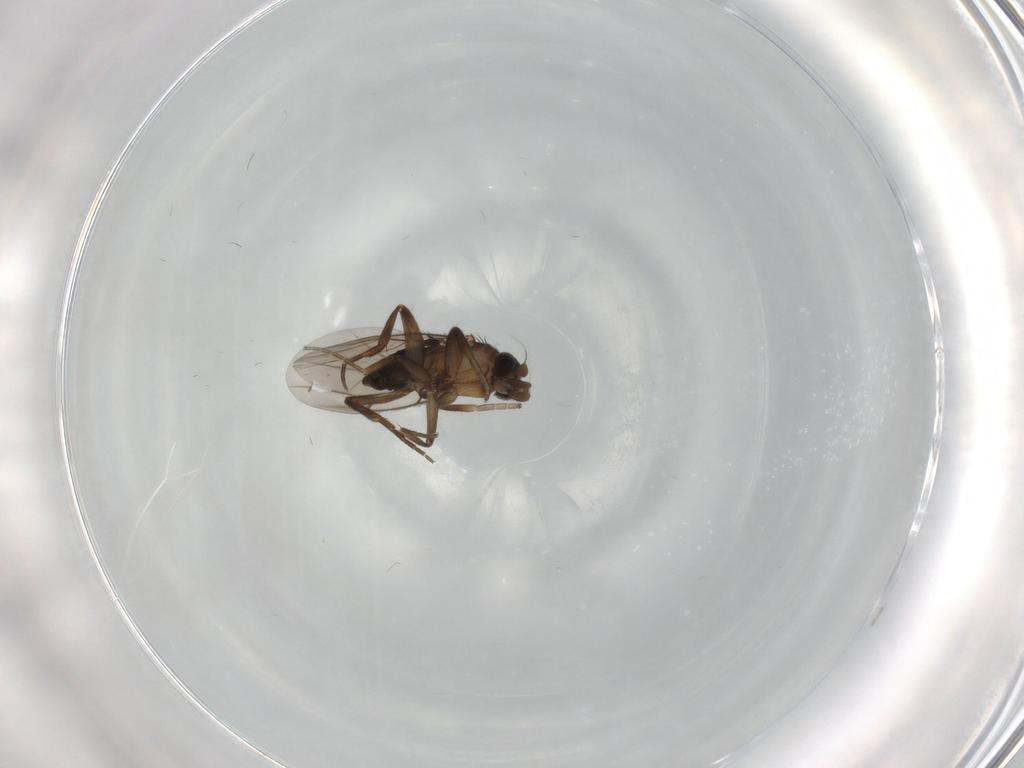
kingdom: Animalia
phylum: Arthropoda
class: Insecta
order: Diptera
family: Phoridae
